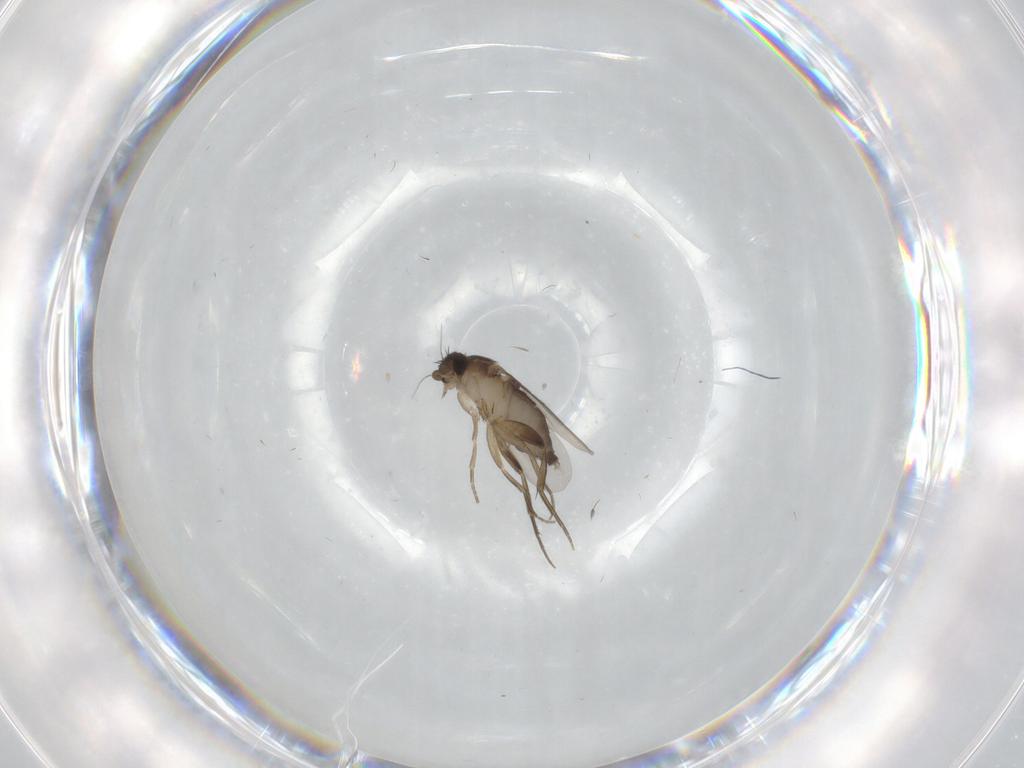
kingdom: Animalia
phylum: Arthropoda
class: Insecta
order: Diptera
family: Phoridae
